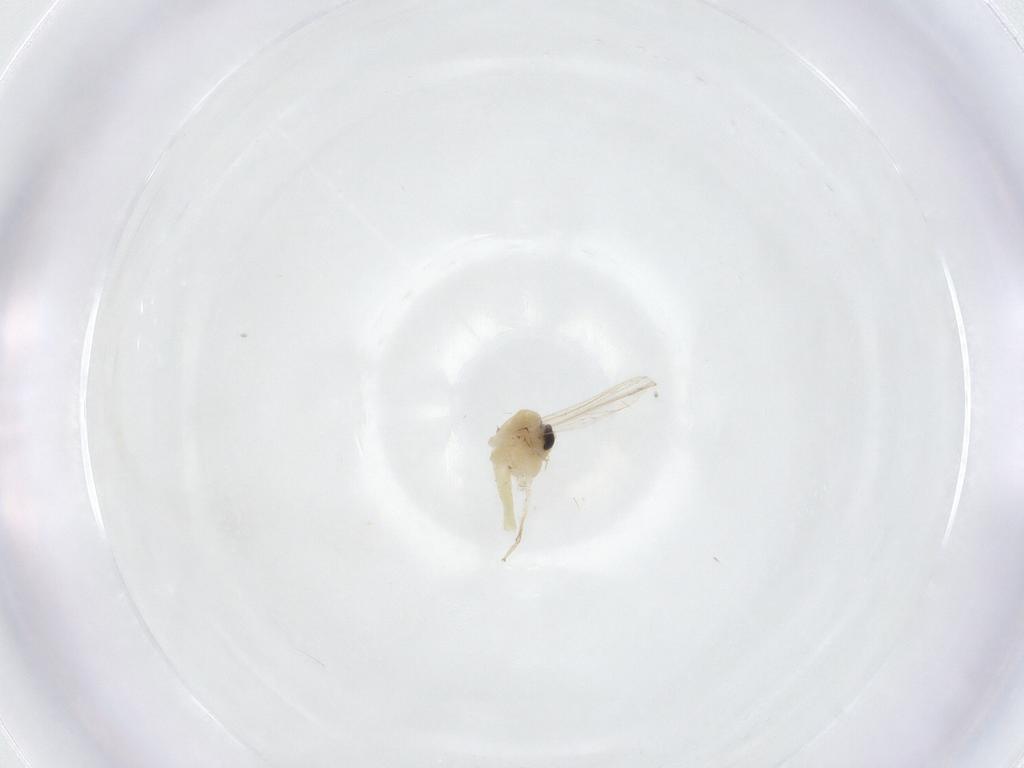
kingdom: Animalia
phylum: Arthropoda
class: Insecta
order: Diptera
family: Chironomidae
